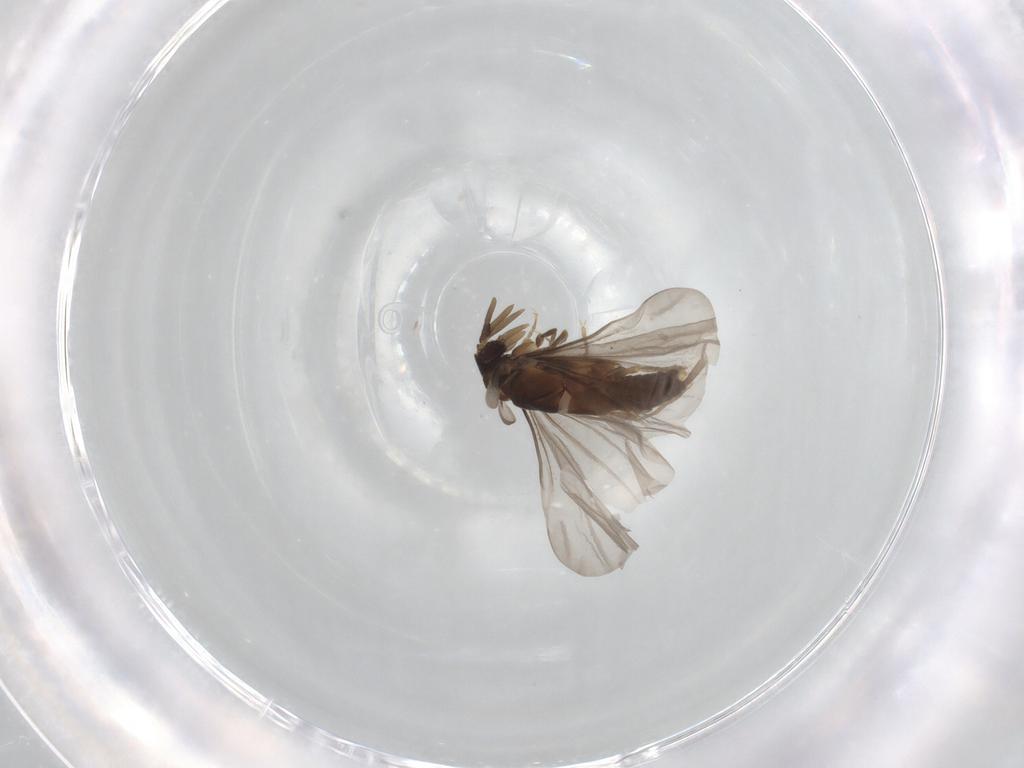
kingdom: Animalia
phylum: Arthropoda
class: Insecta
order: Strepsiptera
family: Mengenillidae
